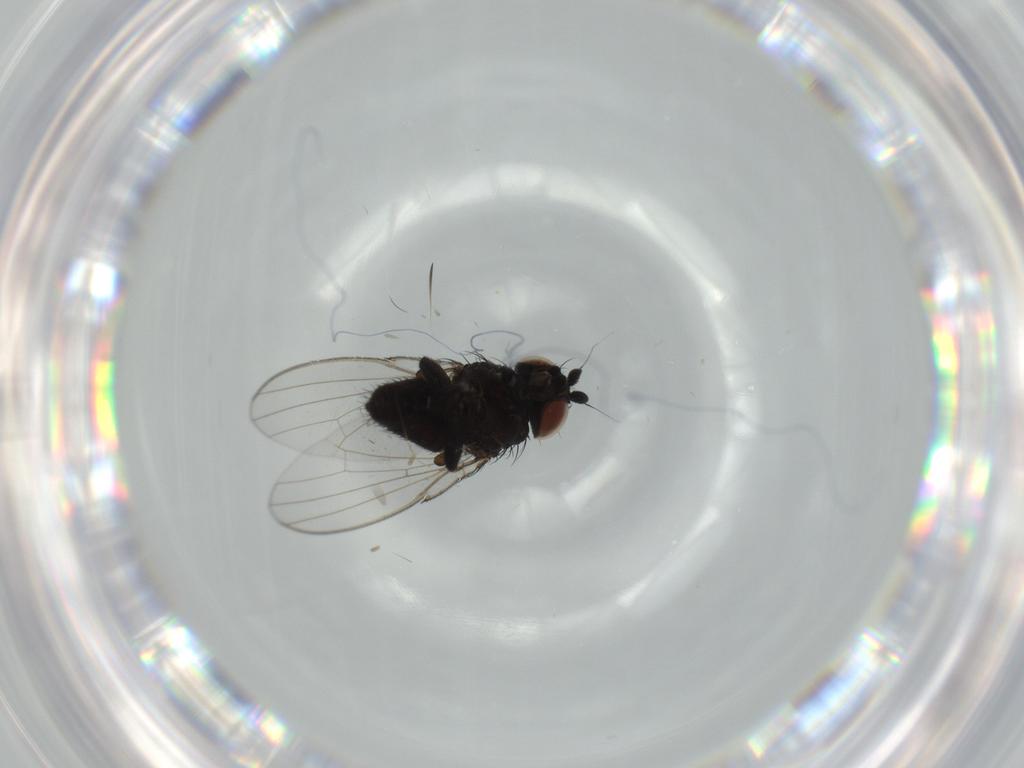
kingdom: Animalia
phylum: Arthropoda
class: Insecta
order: Diptera
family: Milichiidae
